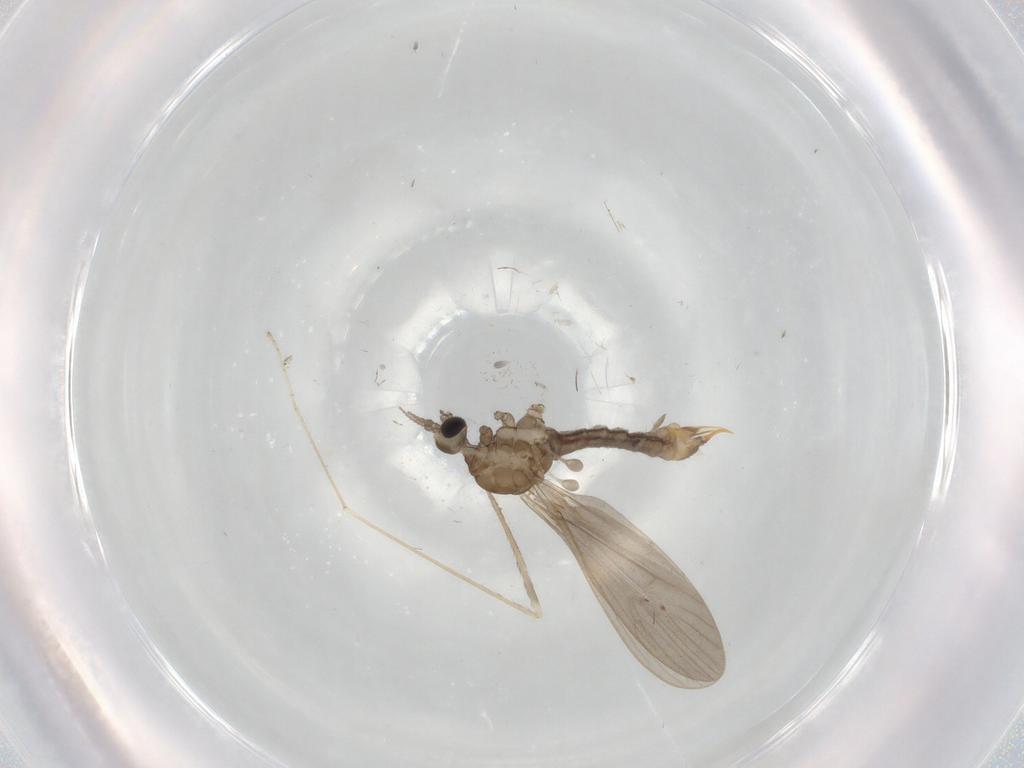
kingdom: Animalia
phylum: Arthropoda
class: Insecta
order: Diptera
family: Limoniidae
